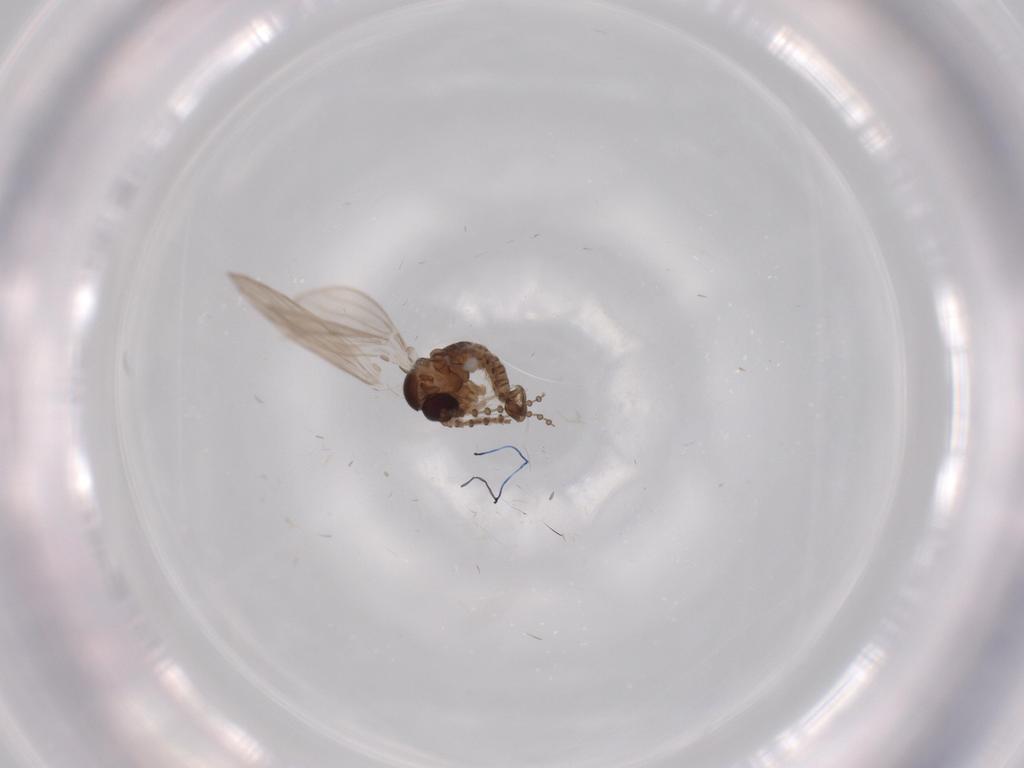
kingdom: Animalia
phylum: Arthropoda
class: Insecta
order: Diptera
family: Psychodidae
